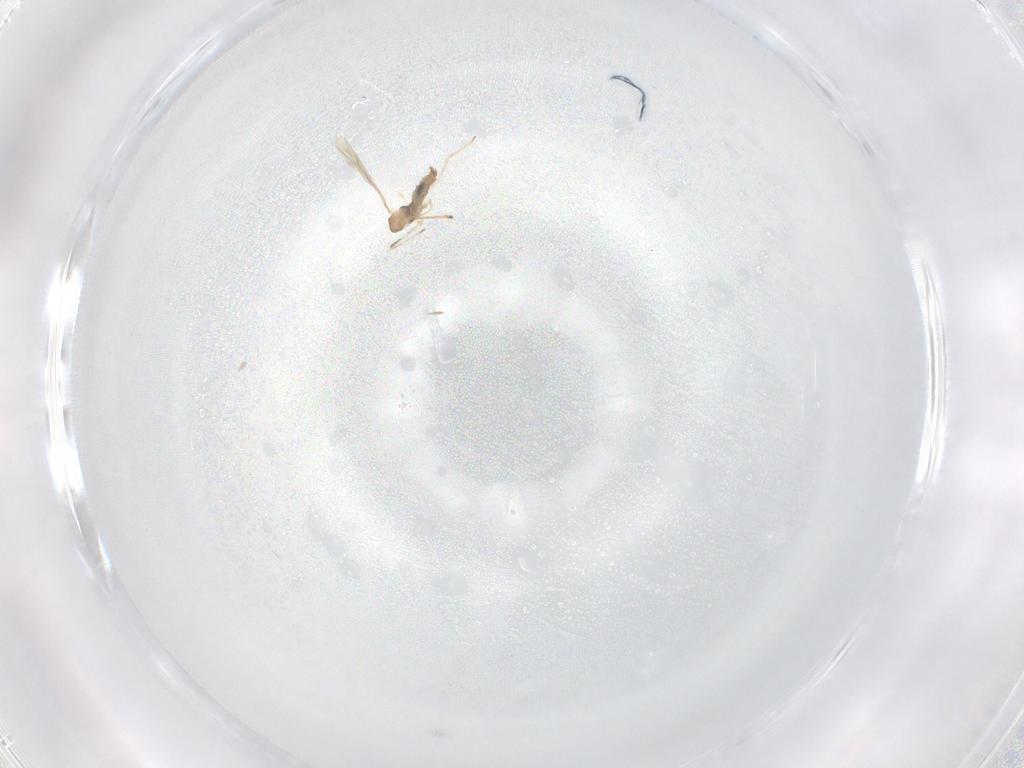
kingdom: Animalia
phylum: Arthropoda
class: Insecta
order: Diptera
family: Cecidomyiidae
